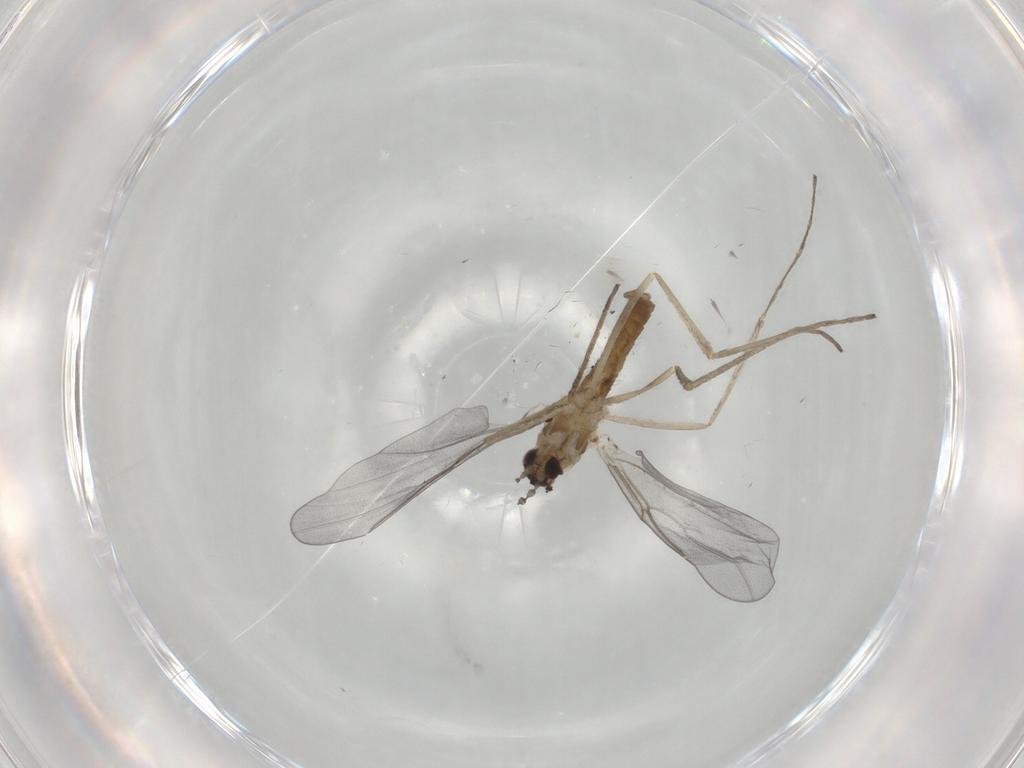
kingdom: Animalia
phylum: Arthropoda
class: Insecta
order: Diptera
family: Cecidomyiidae
